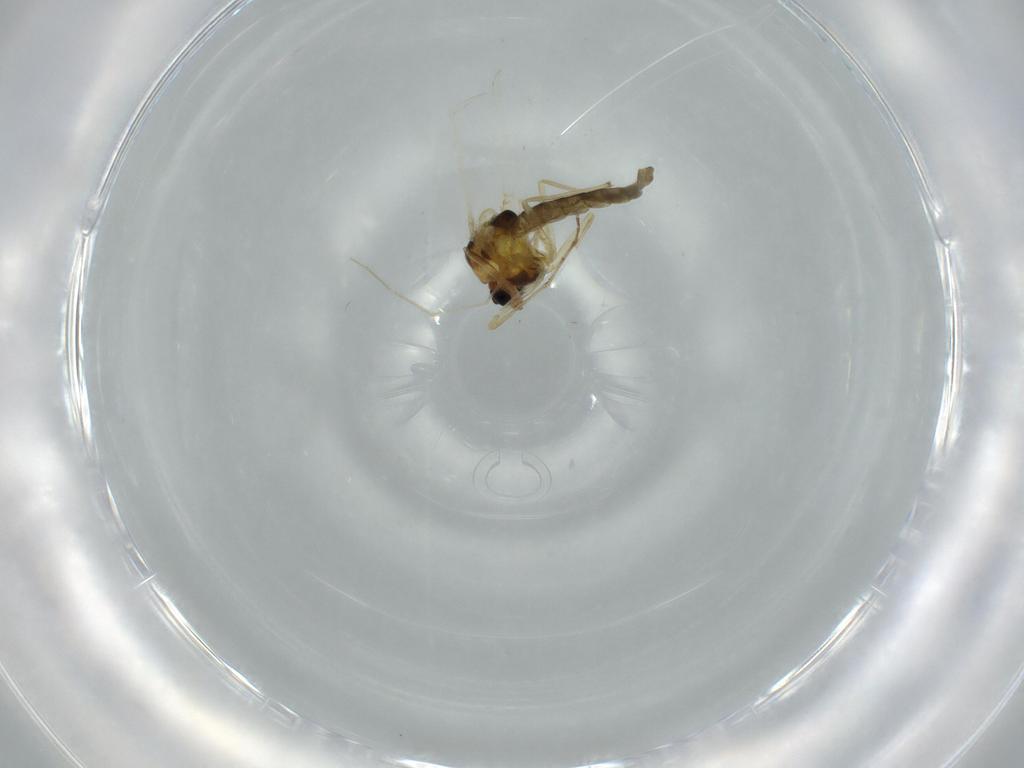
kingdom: Animalia
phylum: Arthropoda
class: Insecta
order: Diptera
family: Chironomidae
